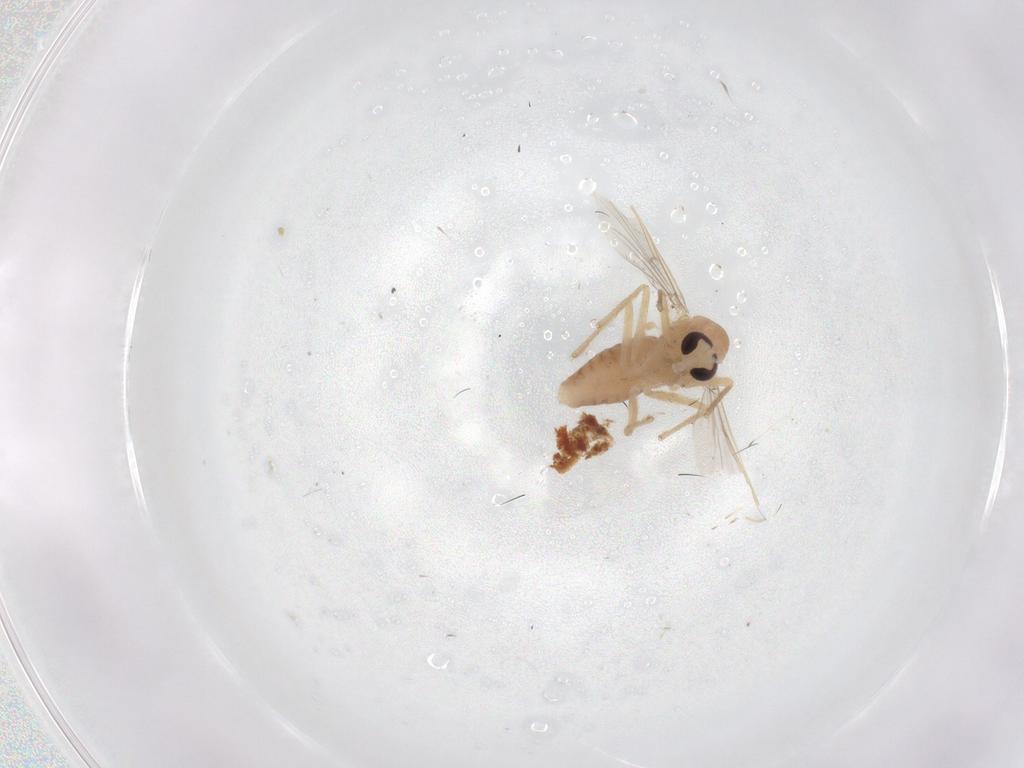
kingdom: Animalia
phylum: Arthropoda
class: Insecta
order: Diptera
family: Chironomidae
